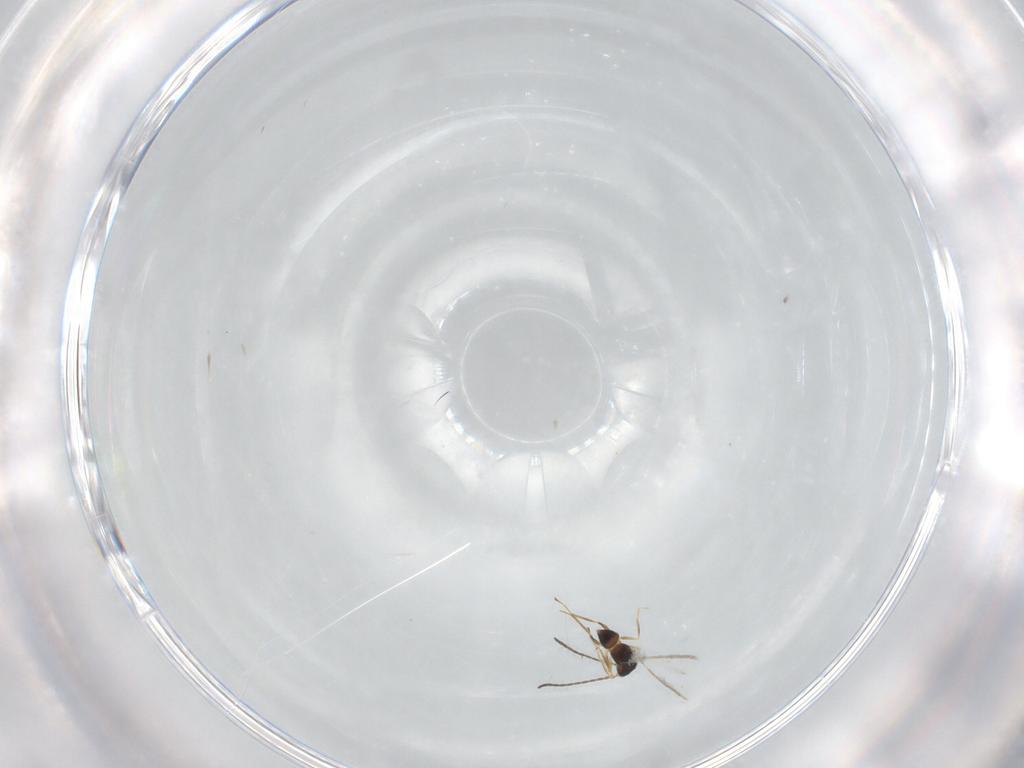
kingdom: Animalia
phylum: Arthropoda
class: Insecta
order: Hymenoptera
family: Mymaridae
